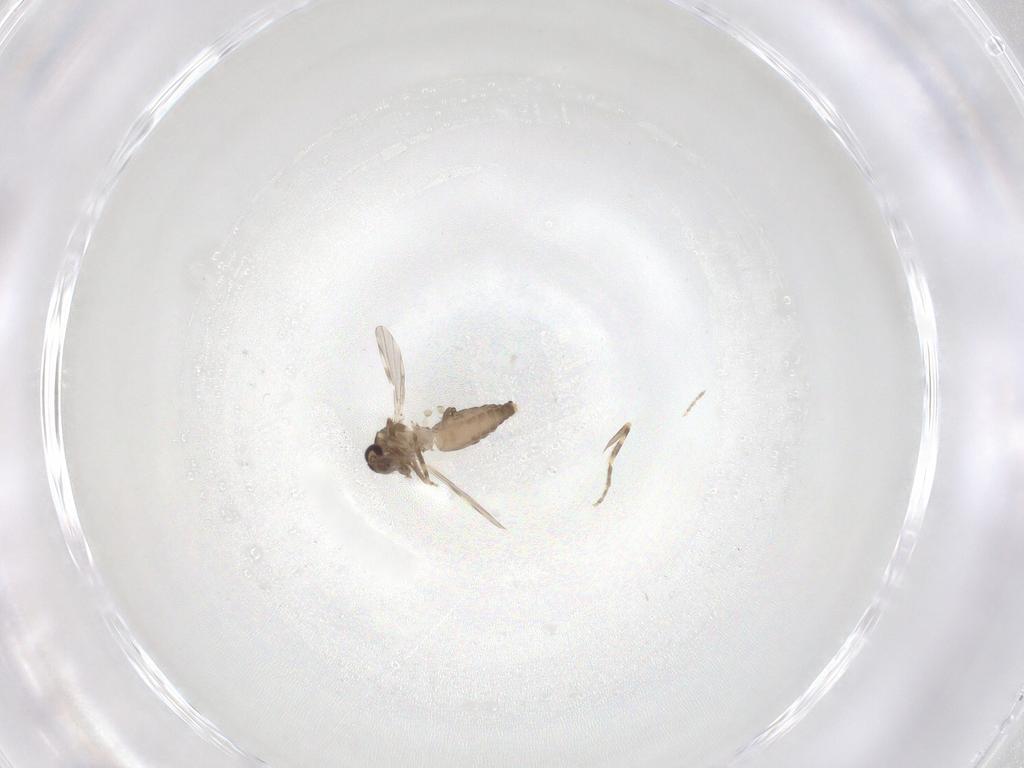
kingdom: Animalia
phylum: Arthropoda
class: Insecta
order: Diptera
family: Ceratopogonidae
